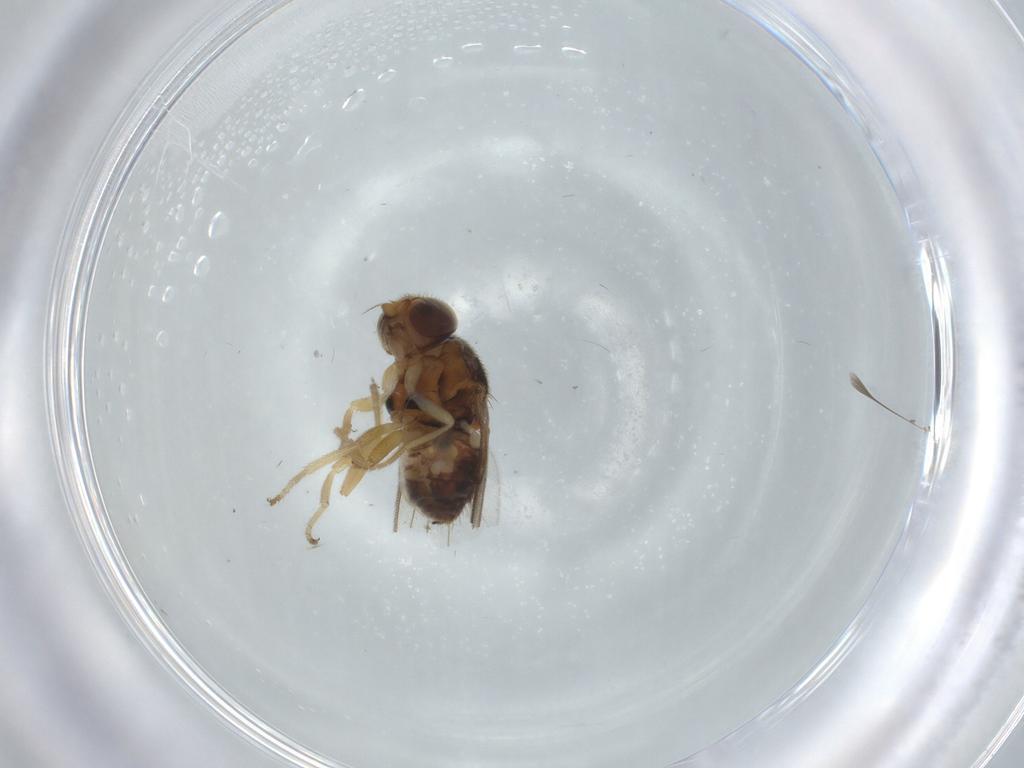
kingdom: Animalia
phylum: Arthropoda
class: Insecta
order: Diptera
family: Chloropidae
